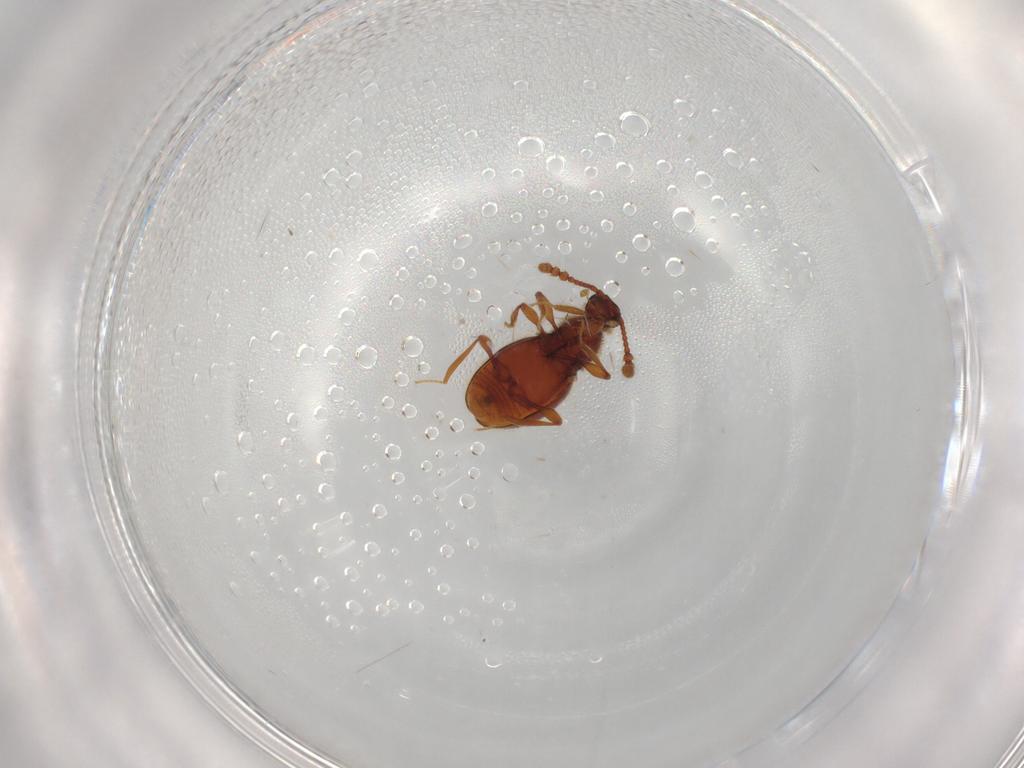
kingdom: Animalia
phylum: Arthropoda
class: Insecta
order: Coleoptera
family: Staphylinidae
